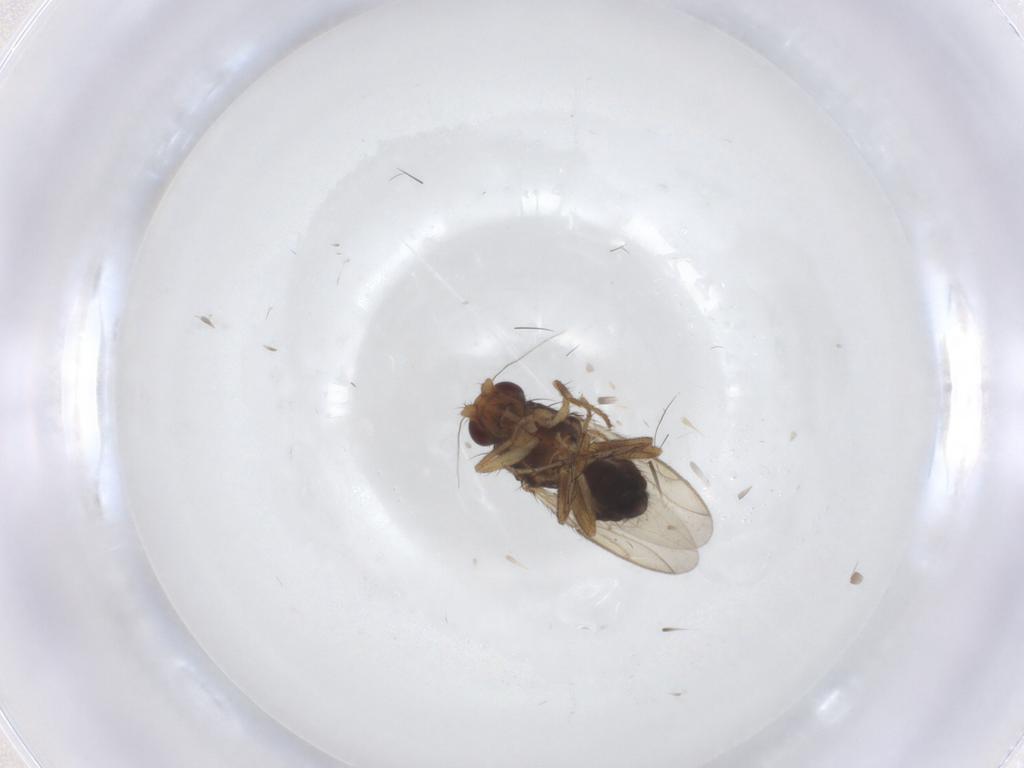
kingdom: Animalia
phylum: Arthropoda
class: Insecta
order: Diptera
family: Sphaeroceridae
